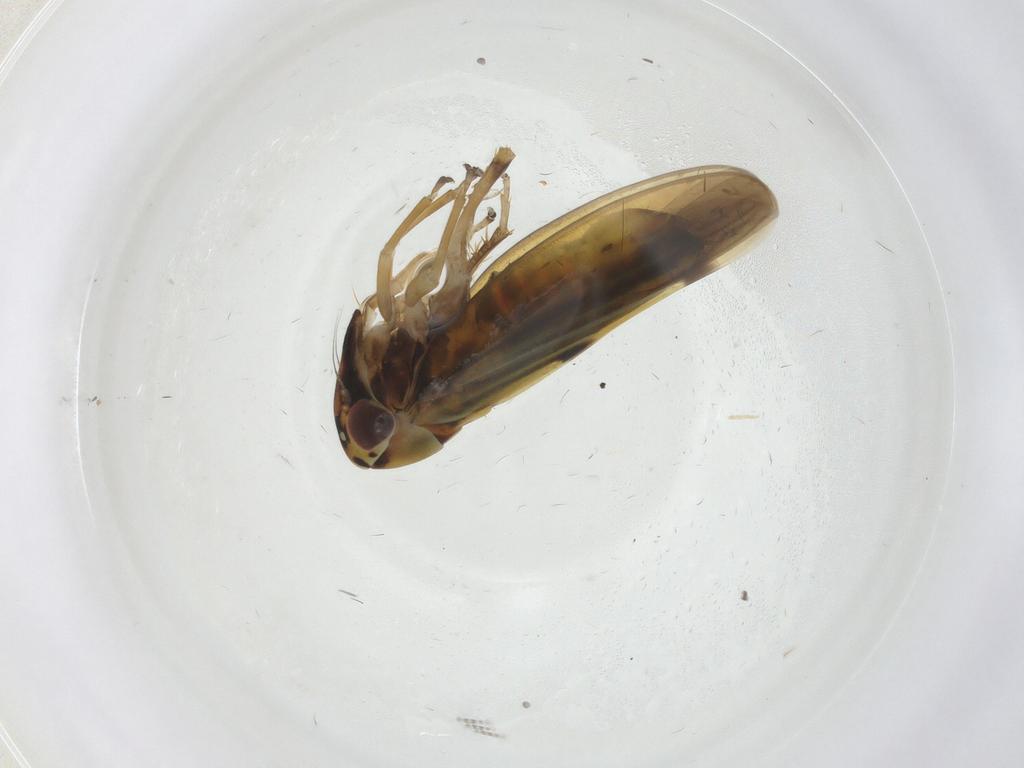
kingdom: Animalia
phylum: Arthropoda
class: Insecta
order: Hemiptera
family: Cicadellidae
